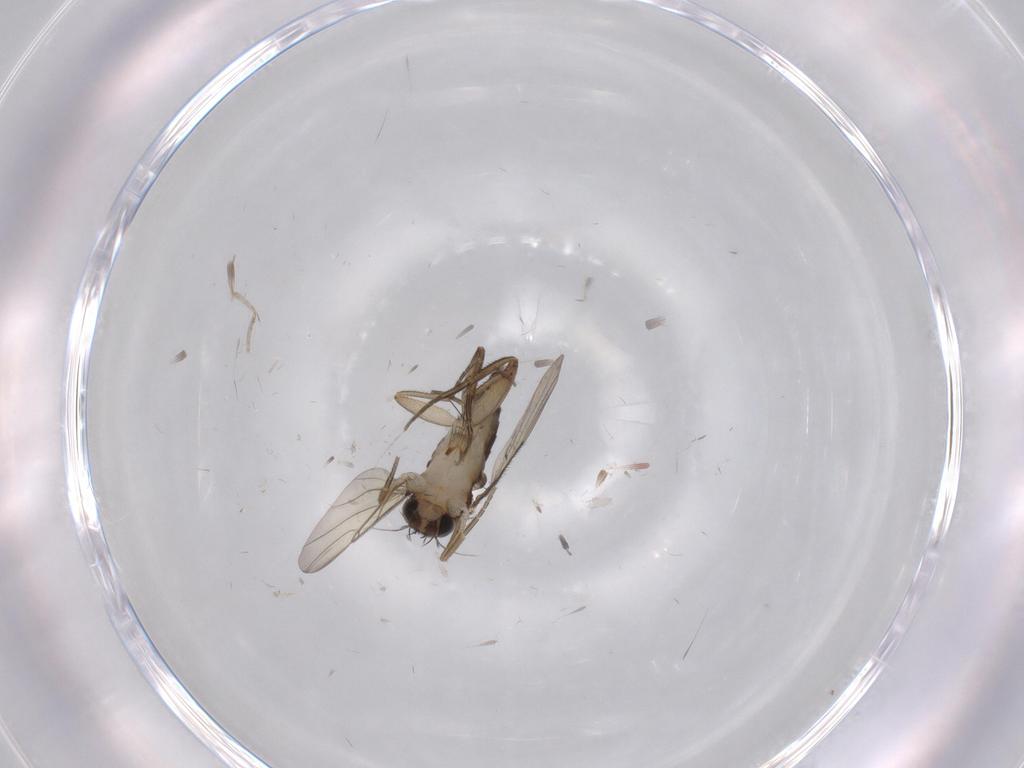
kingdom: Animalia
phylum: Arthropoda
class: Insecta
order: Diptera
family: Phoridae
